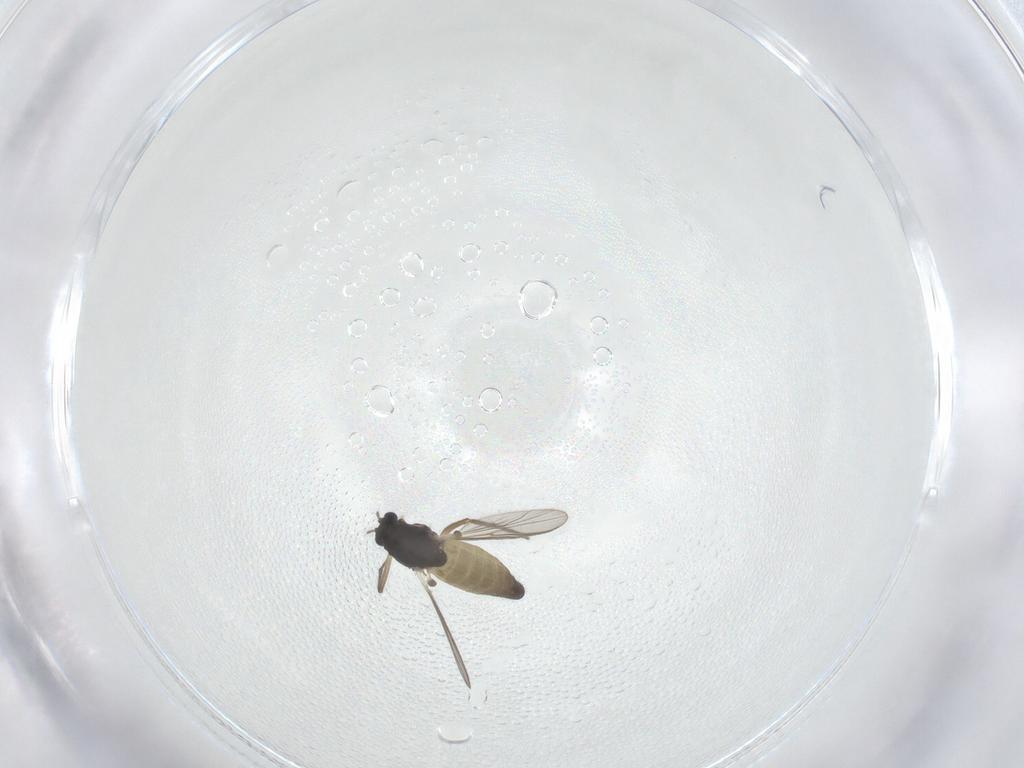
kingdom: Animalia
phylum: Arthropoda
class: Insecta
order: Diptera
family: Chironomidae
